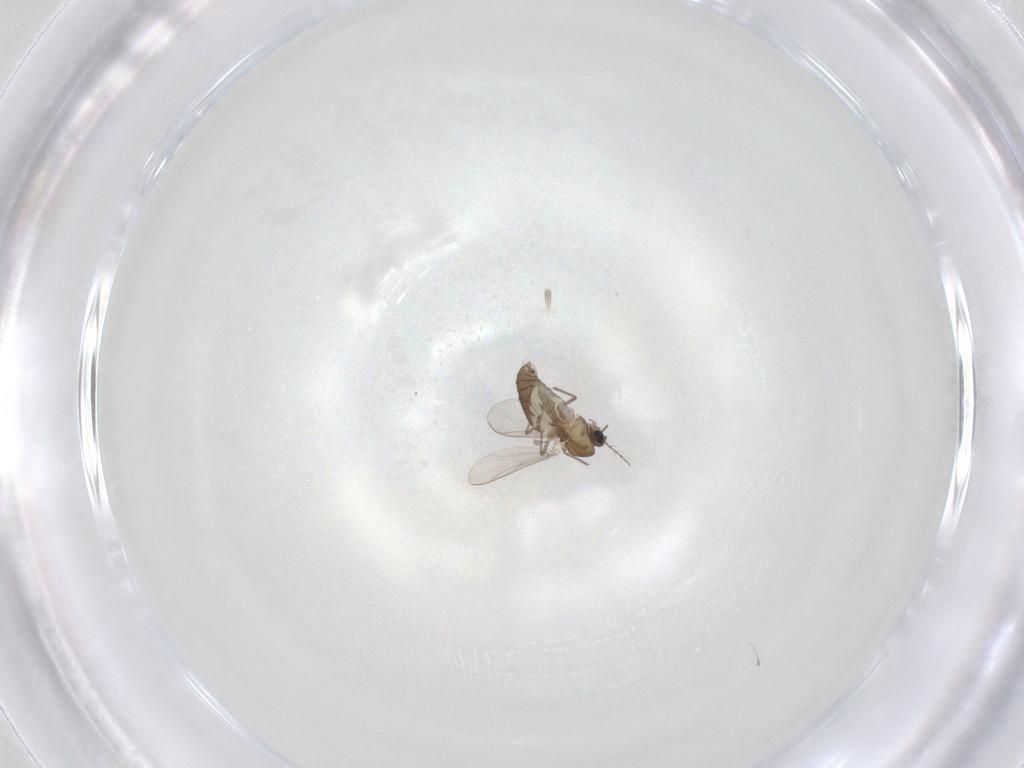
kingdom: Animalia
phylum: Arthropoda
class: Insecta
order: Diptera
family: Chironomidae
